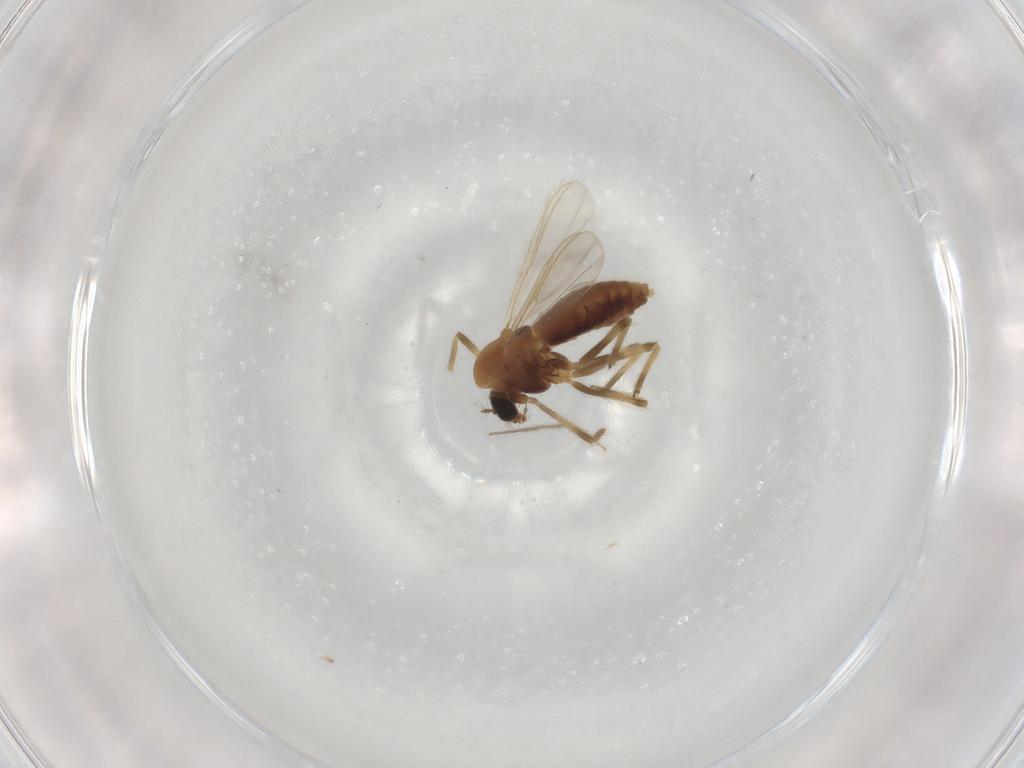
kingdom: Animalia
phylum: Arthropoda
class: Insecta
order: Diptera
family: Chironomidae
